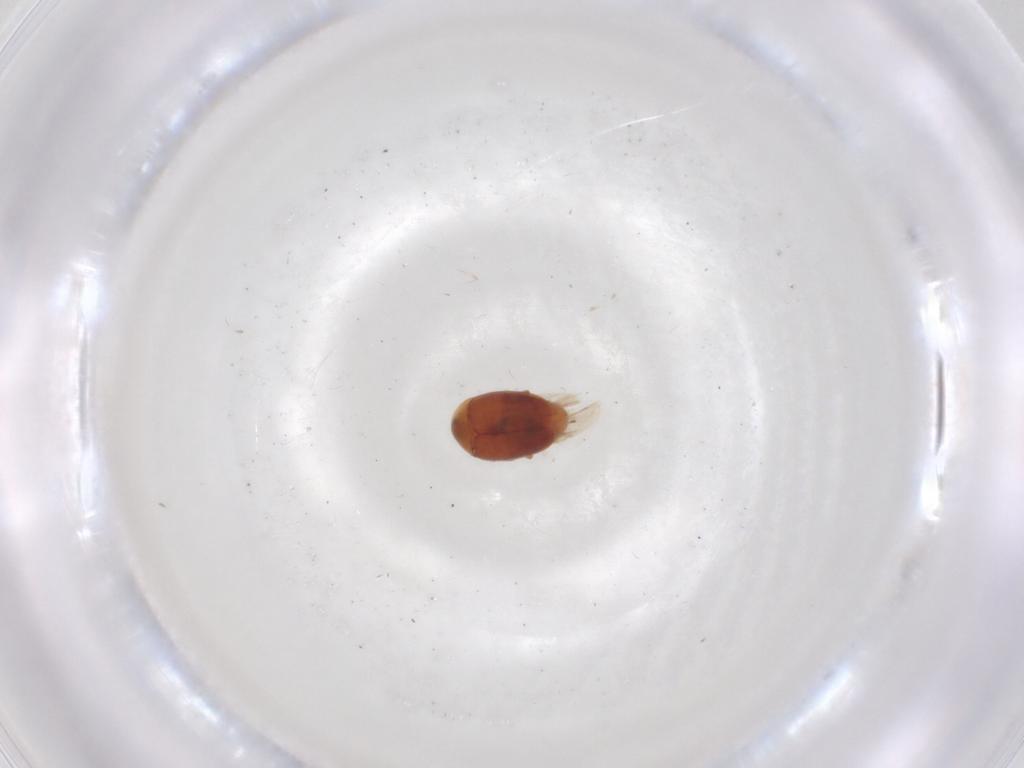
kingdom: Animalia
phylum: Arthropoda
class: Insecta
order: Coleoptera
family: Corylophidae
